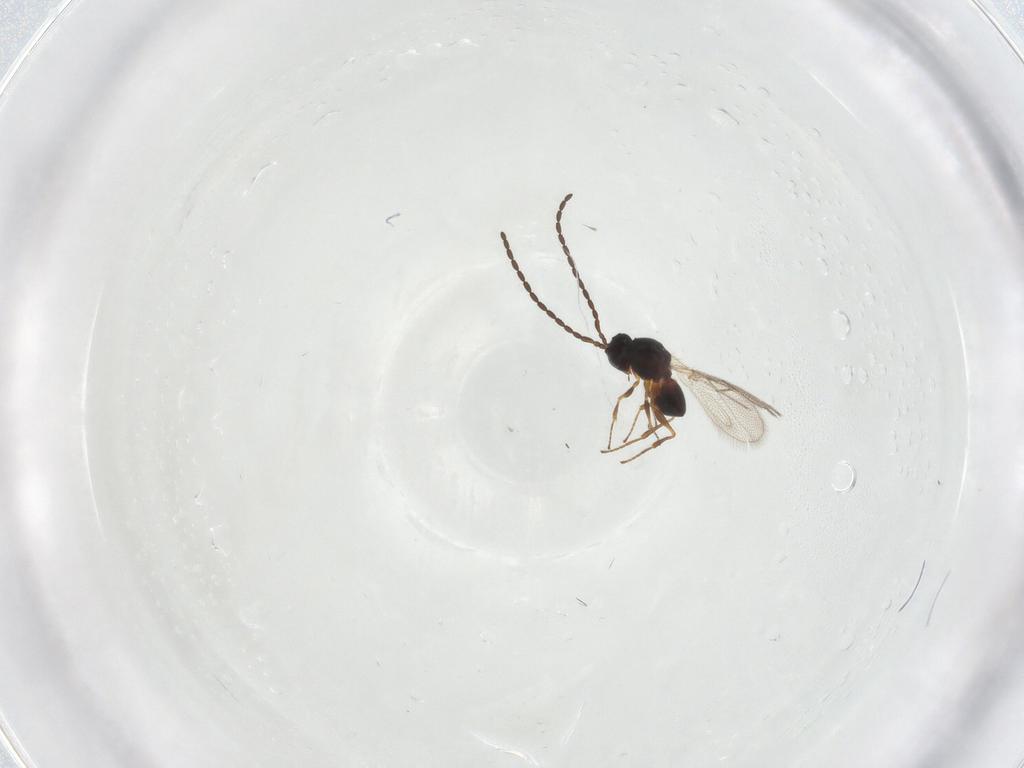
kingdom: Animalia
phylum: Arthropoda
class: Insecta
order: Hymenoptera
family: Figitidae
